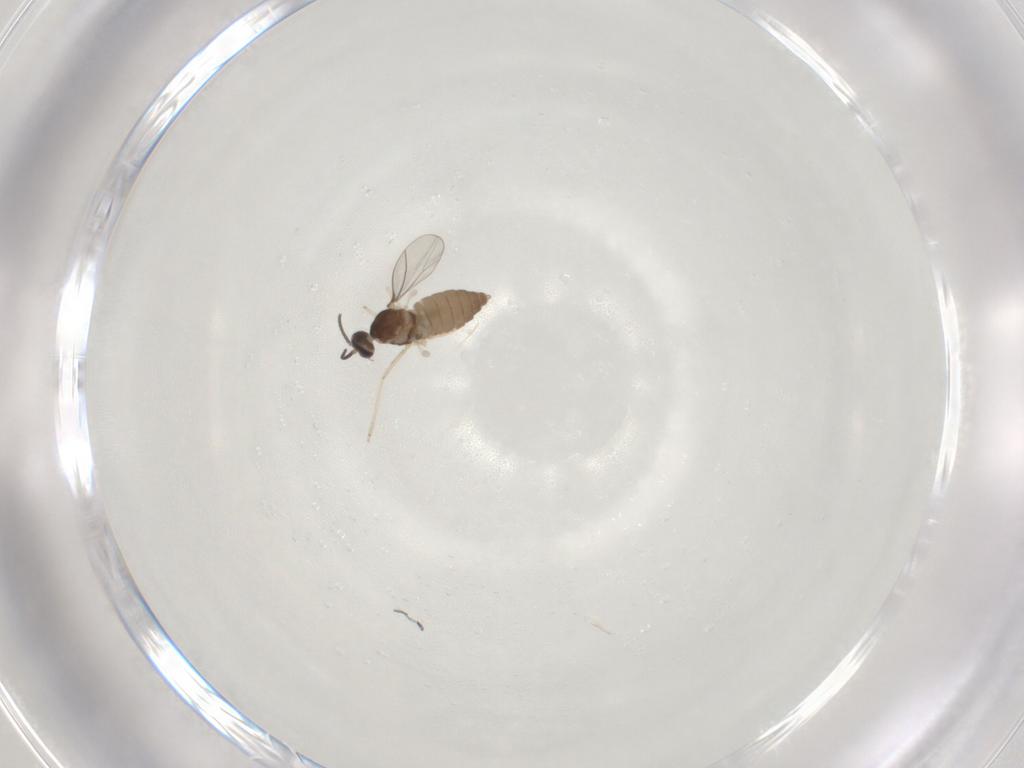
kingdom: Animalia
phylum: Arthropoda
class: Insecta
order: Diptera
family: Cecidomyiidae
